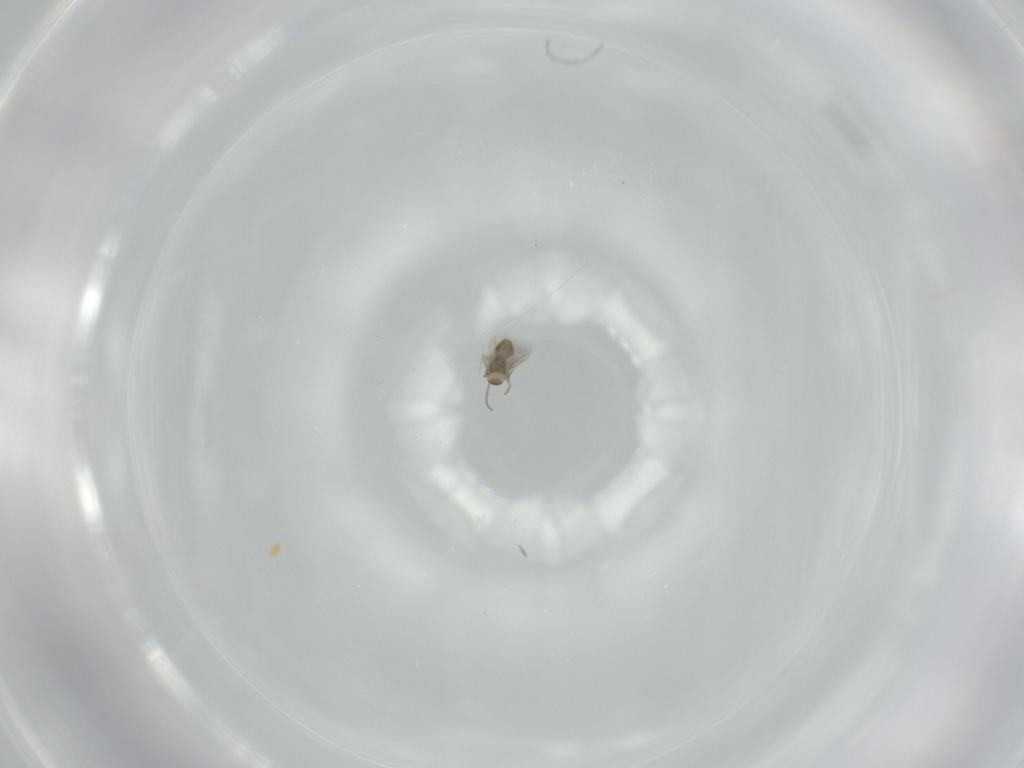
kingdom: Animalia
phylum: Arthropoda
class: Insecta
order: Diptera
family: Cecidomyiidae
